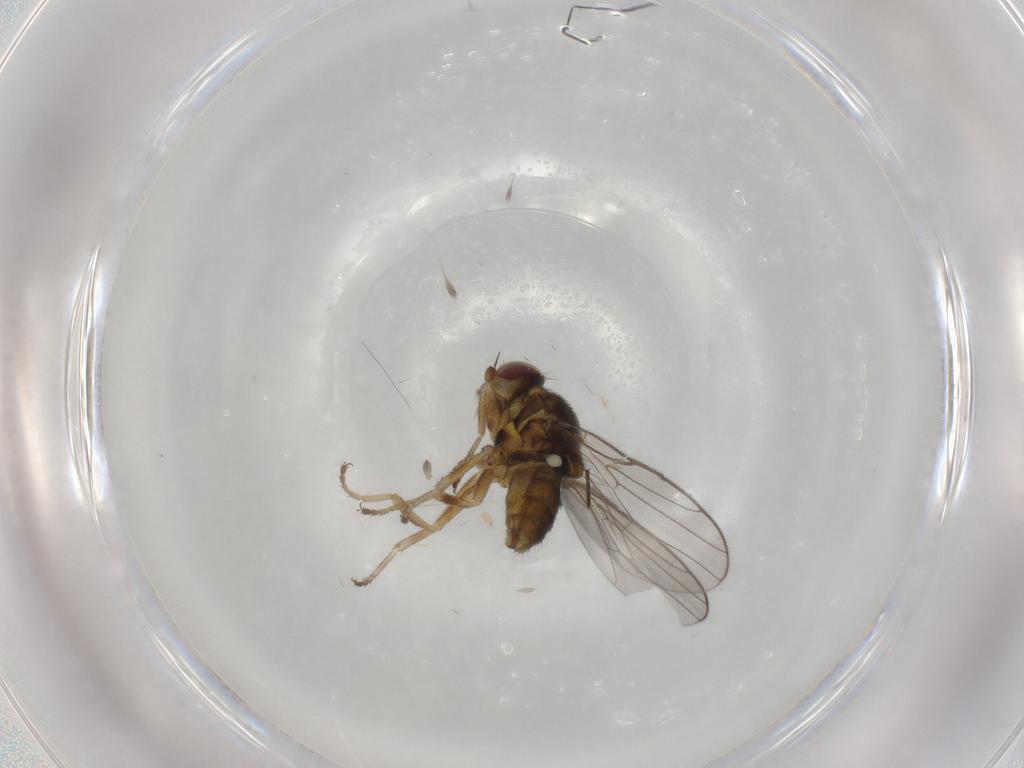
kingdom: Animalia
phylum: Arthropoda
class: Insecta
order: Diptera
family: Chloropidae
